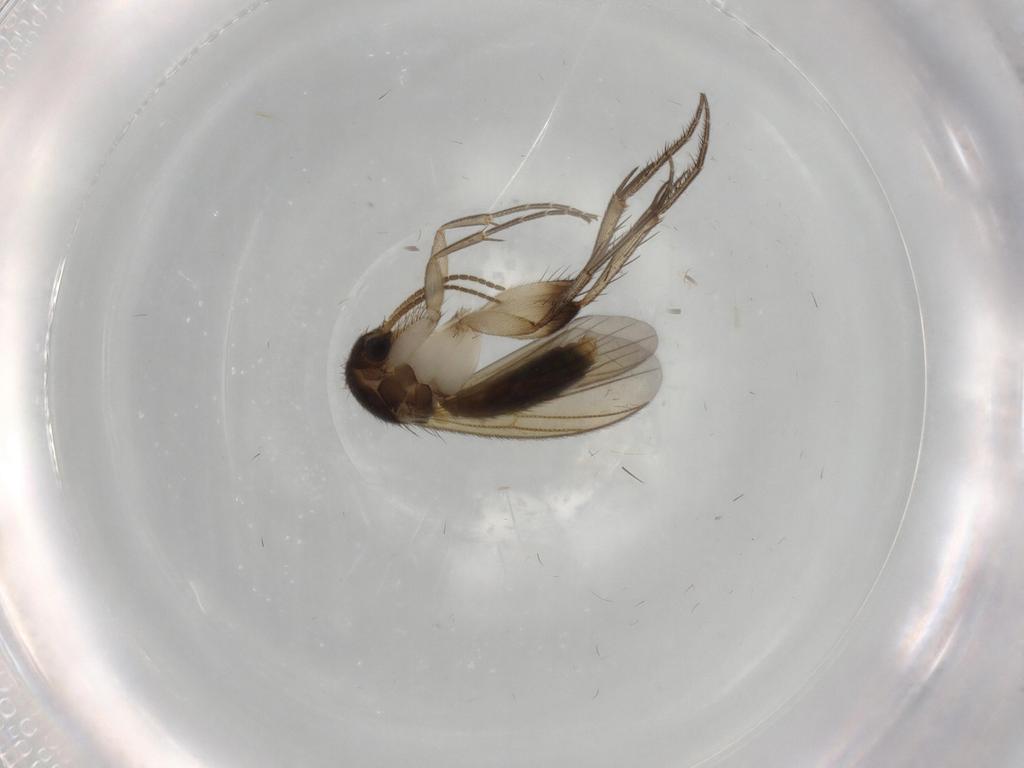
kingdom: Animalia
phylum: Arthropoda
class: Insecta
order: Diptera
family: Mycetophilidae
